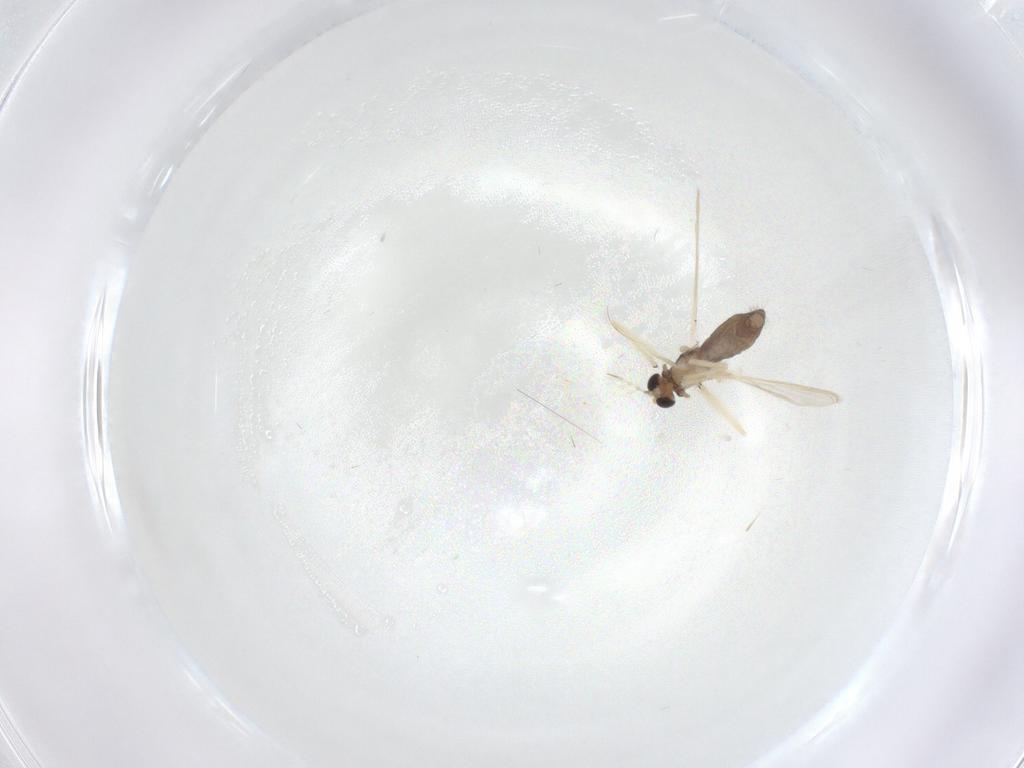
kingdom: Animalia
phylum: Arthropoda
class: Insecta
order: Diptera
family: Chironomidae
